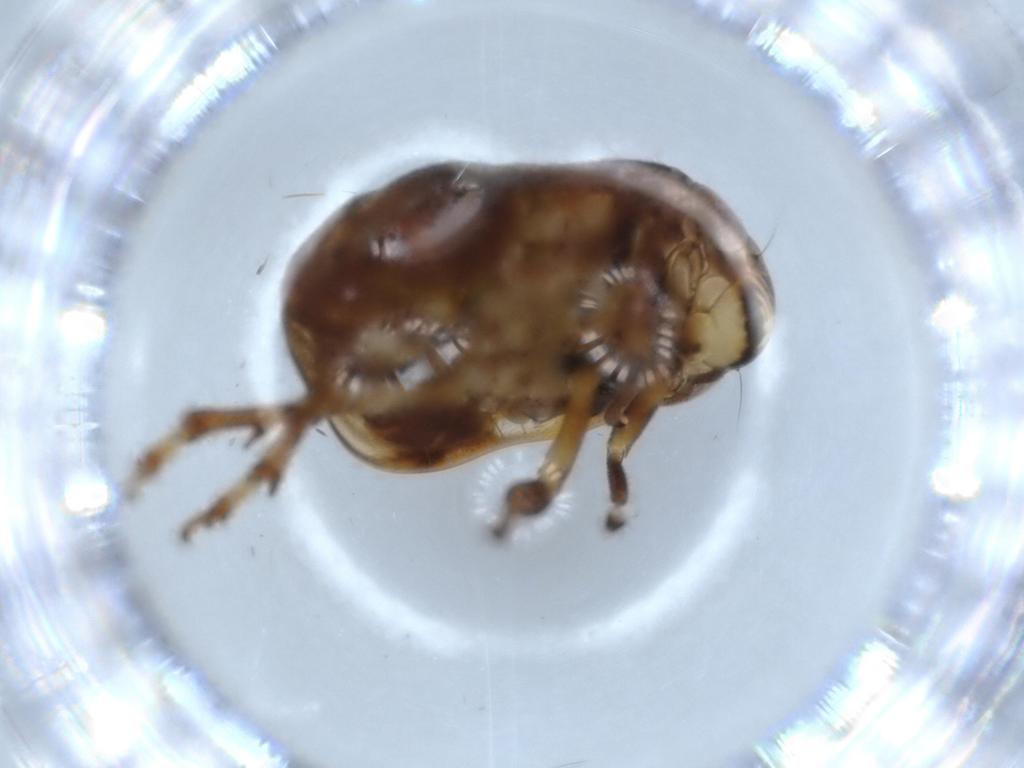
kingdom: Animalia
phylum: Arthropoda
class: Insecta
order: Hemiptera
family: Clastopteridae
